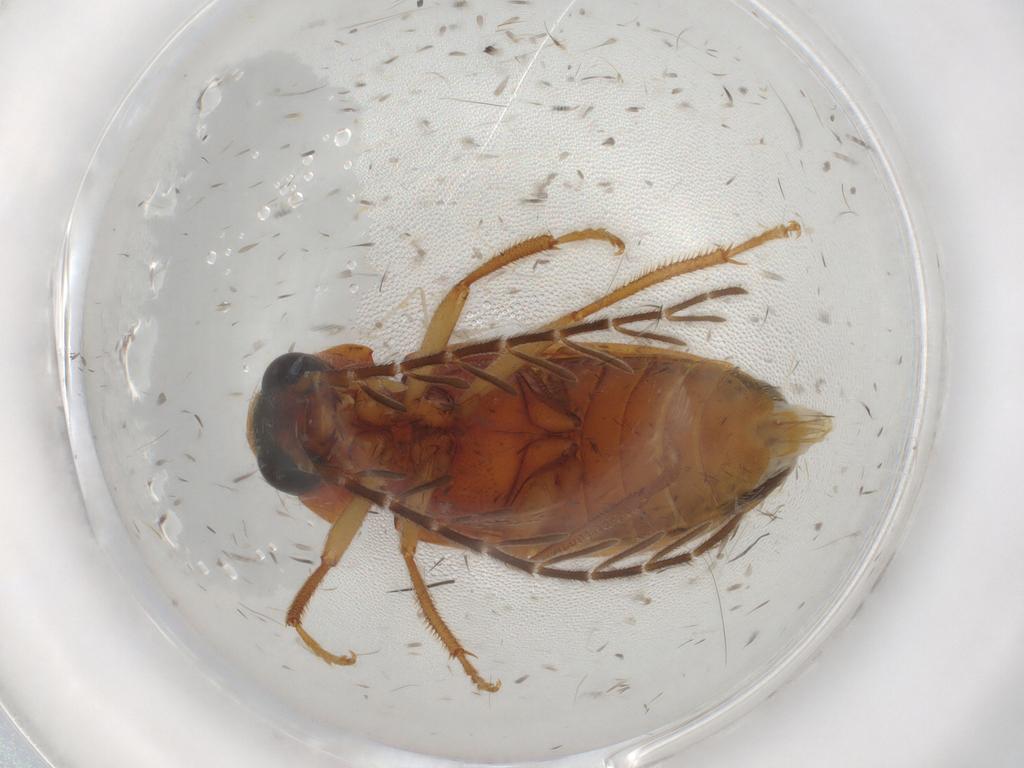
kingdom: Animalia
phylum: Arthropoda
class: Insecta
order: Coleoptera
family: Ptilodactylidae
